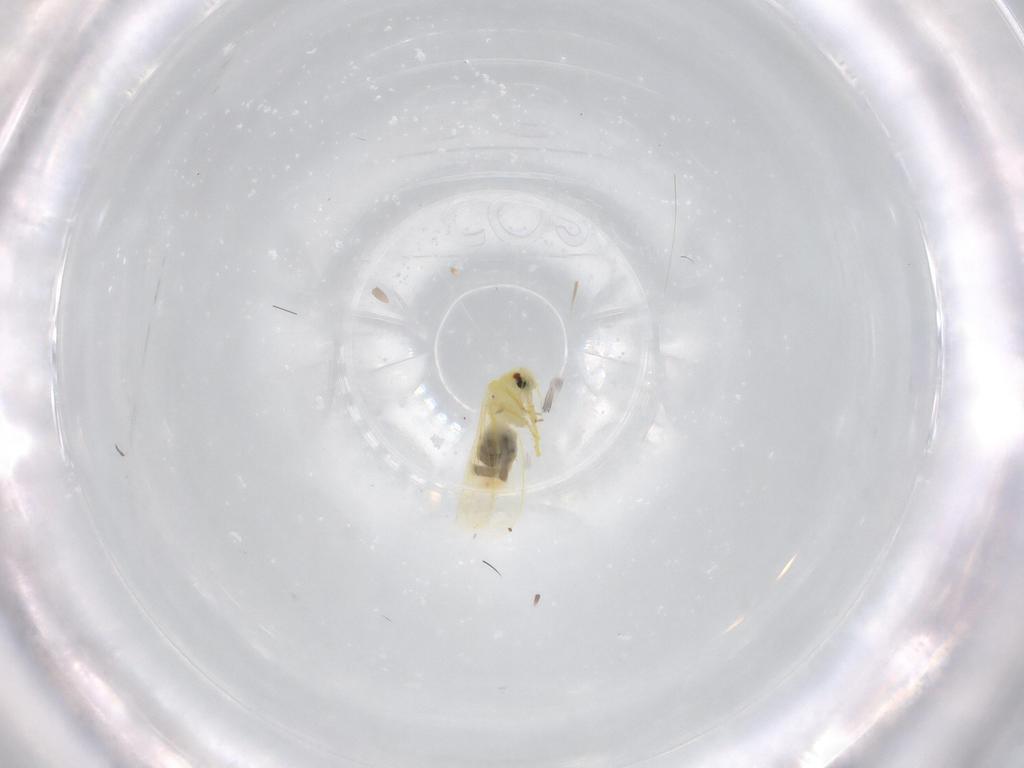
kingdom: Animalia
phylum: Arthropoda
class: Insecta
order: Hemiptera
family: Aleyrodidae
